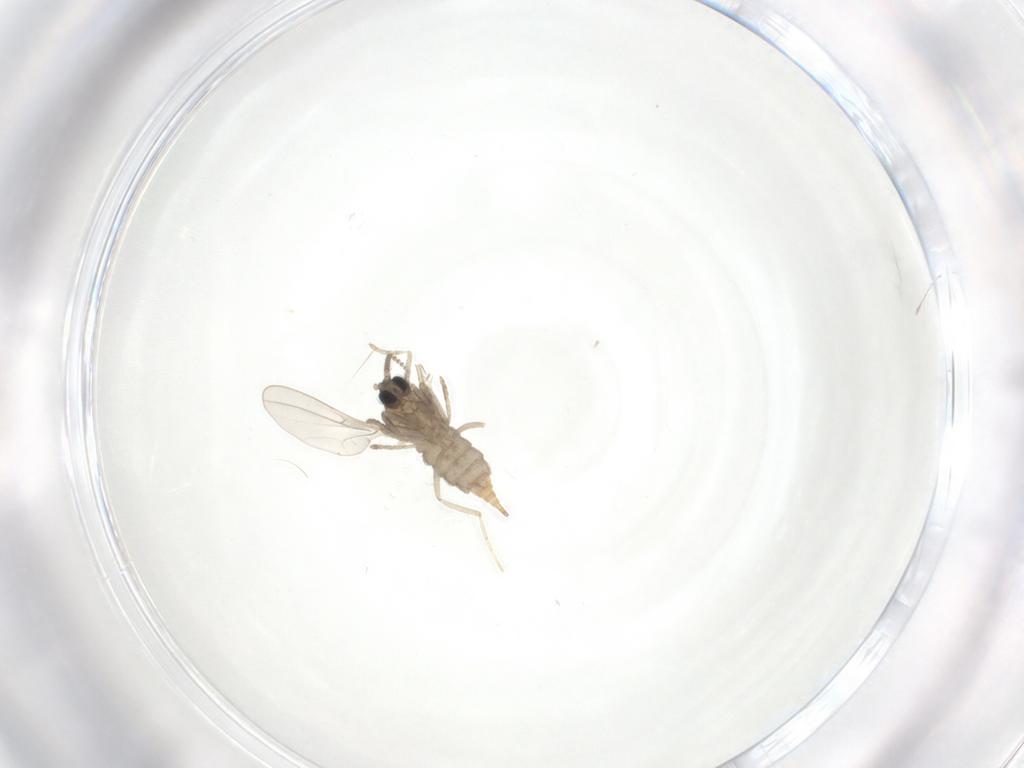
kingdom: Animalia
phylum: Arthropoda
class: Insecta
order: Diptera
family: Cecidomyiidae
